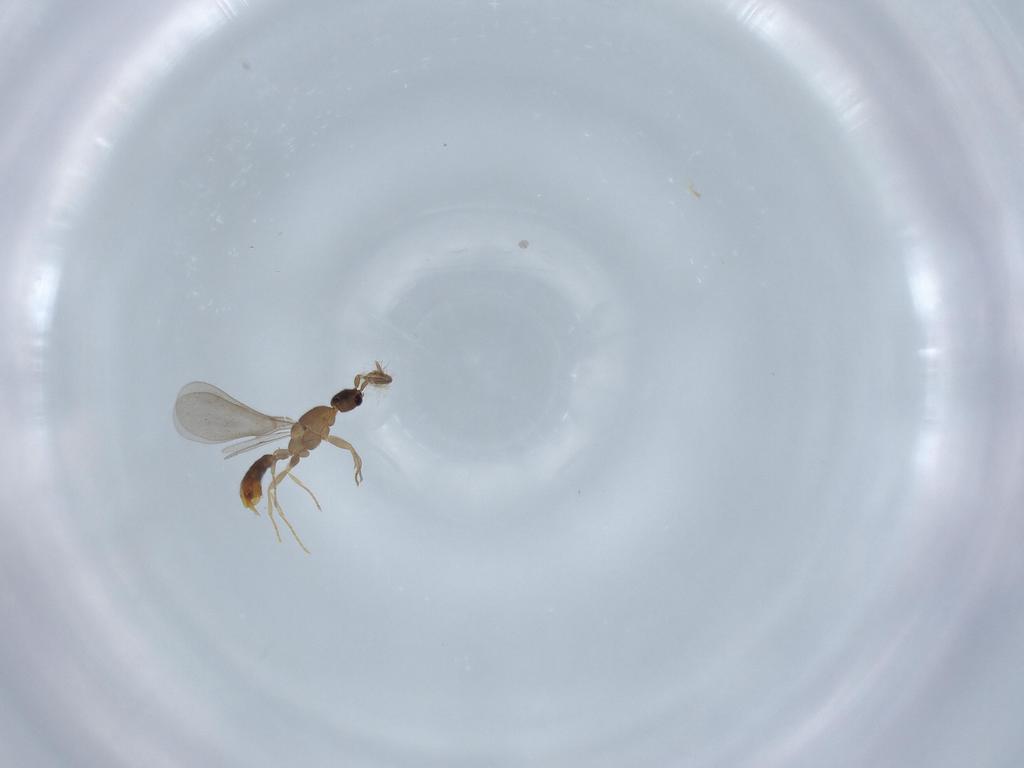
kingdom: Animalia
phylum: Arthropoda
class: Insecta
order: Hymenoptera
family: Formicidae
